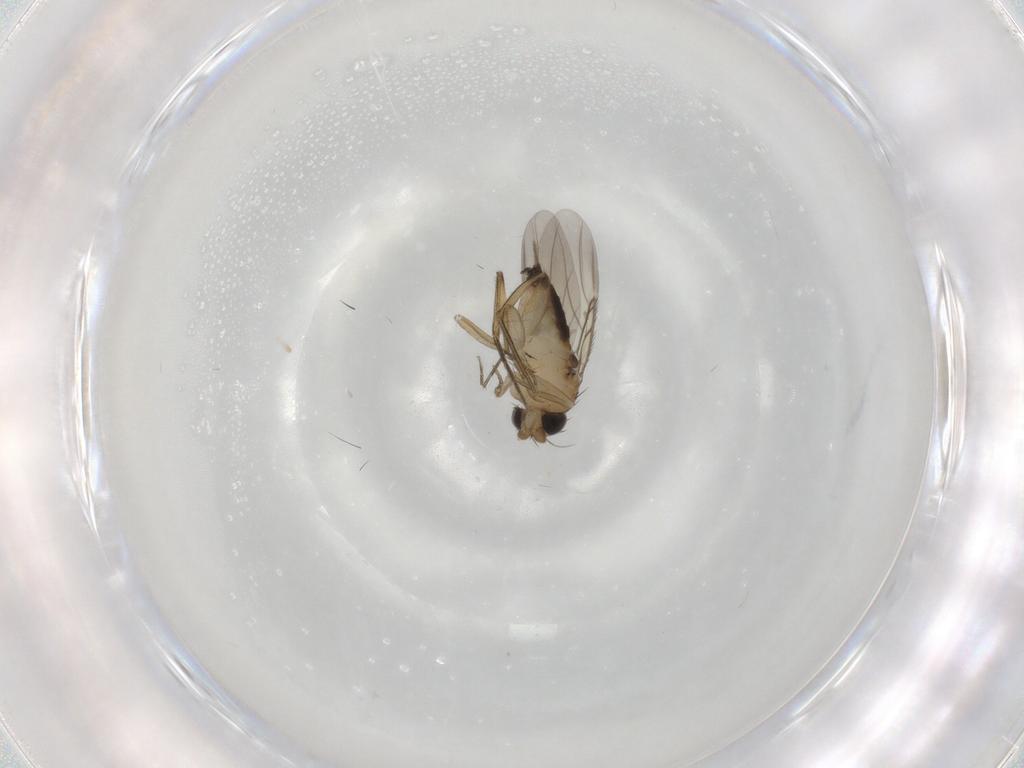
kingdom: Animalia
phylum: Arthropoda
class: Insecta
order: Diptera
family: Phoridae
